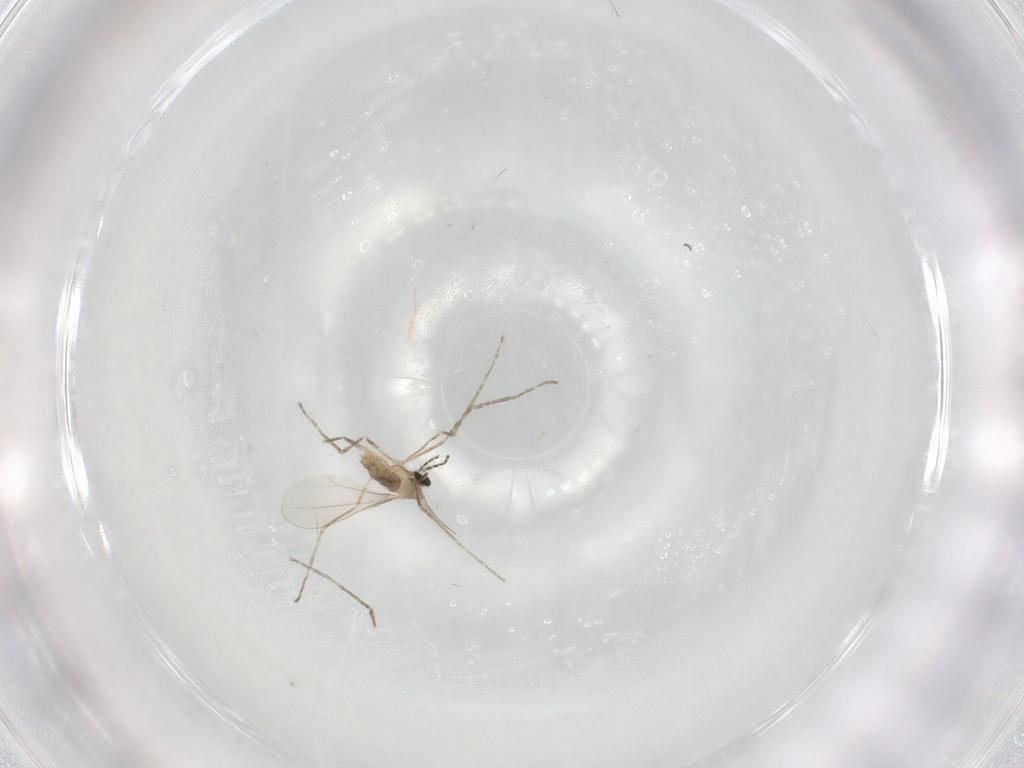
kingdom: Animalia
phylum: Arthropoda
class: Insecta
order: Diptera
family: Cecidomyiidae
